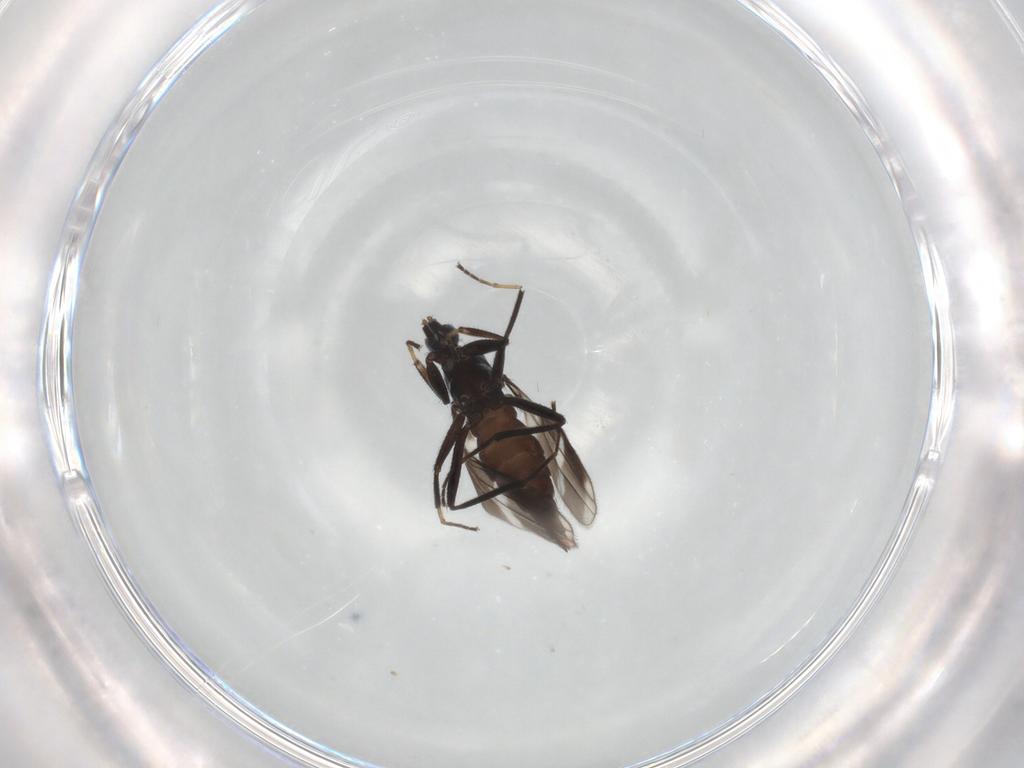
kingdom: Animalia
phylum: Arthropoda
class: Insecta
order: Diptera
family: Hybotidae
